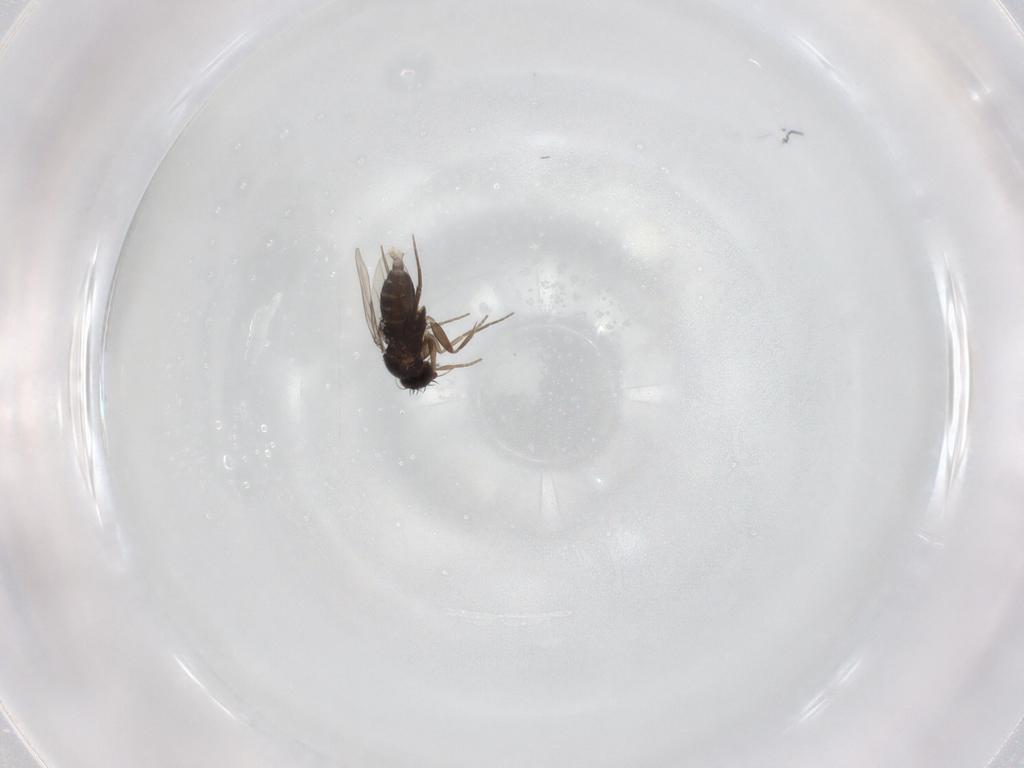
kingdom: Animalia
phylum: Arthropoda
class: Insecta
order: Diptera
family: Phoridae
